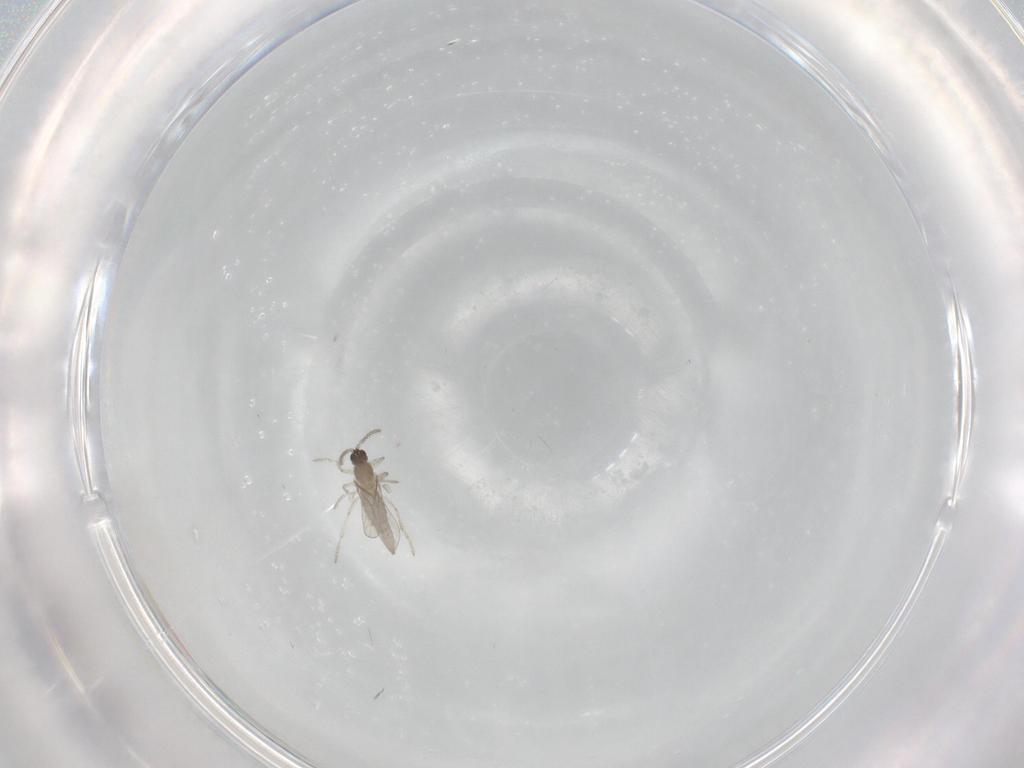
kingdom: Animalia
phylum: Arthropoda
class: Insecta
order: Diptera
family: Cecidomyiidae
